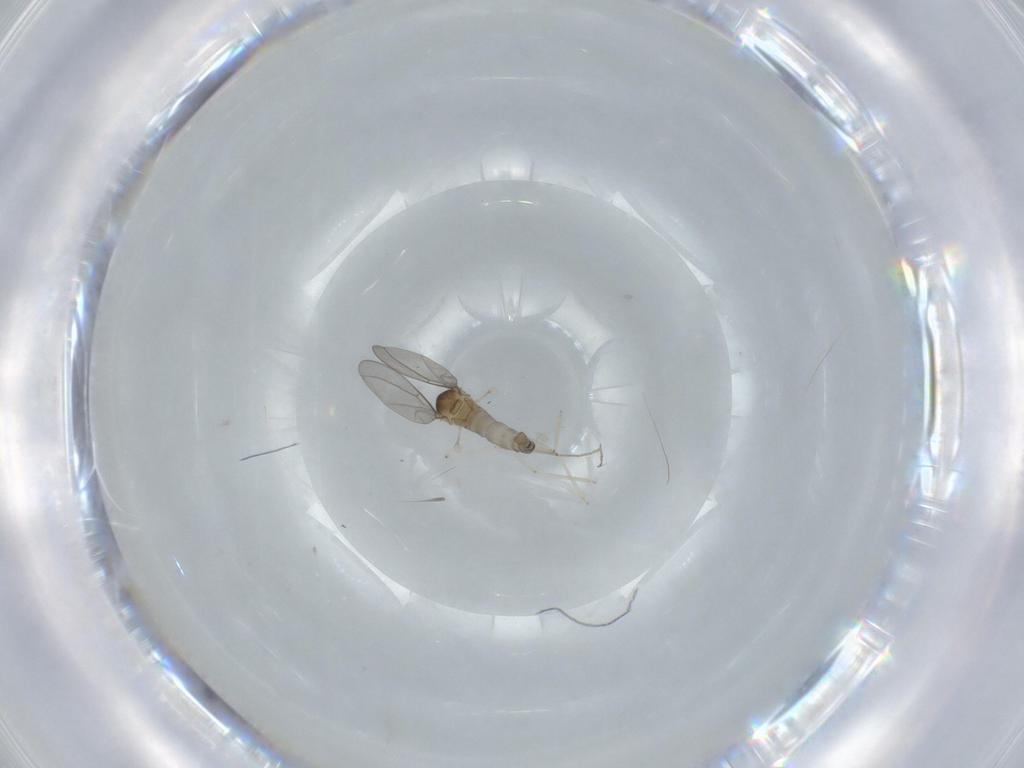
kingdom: Animalia
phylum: Arthropoda
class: Insecta
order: Diptera
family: Cecidomyiidae
